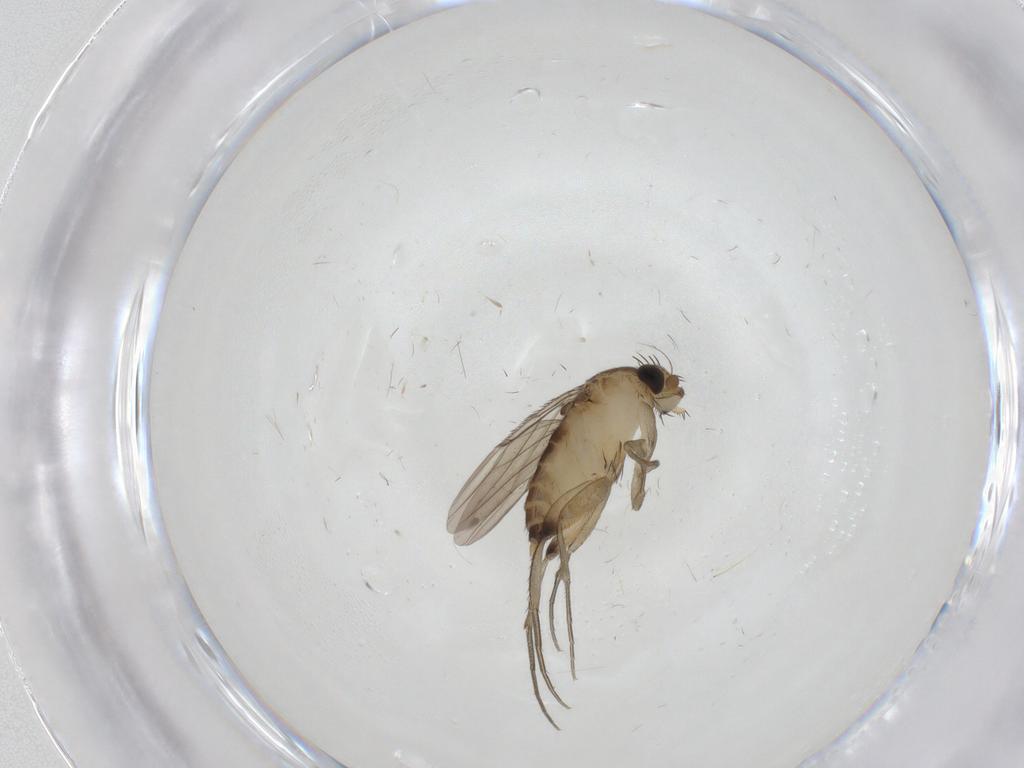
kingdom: Animalia
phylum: Arthropoda
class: Insecta
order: Diptera
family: Phoridae
